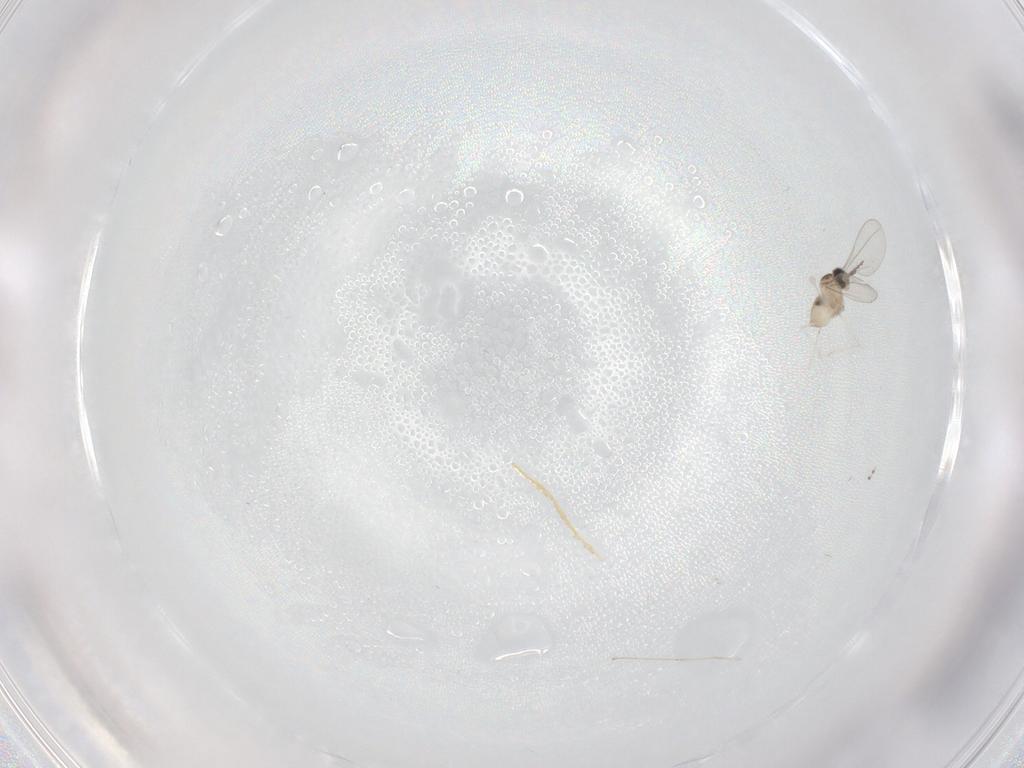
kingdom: Animalia
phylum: Arthropoda
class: Insecta
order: Diptera
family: Cecidomyiidae
